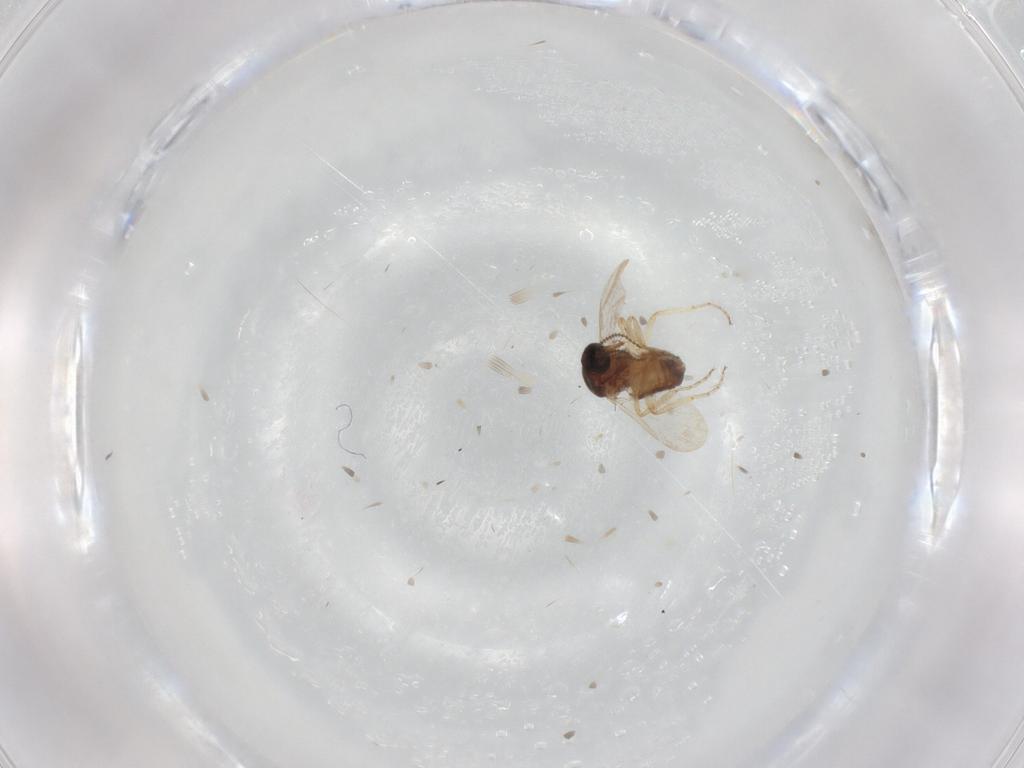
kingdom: Animalia
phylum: Arthropoda
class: Insecta
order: Diptera
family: Ceratopogonidae
